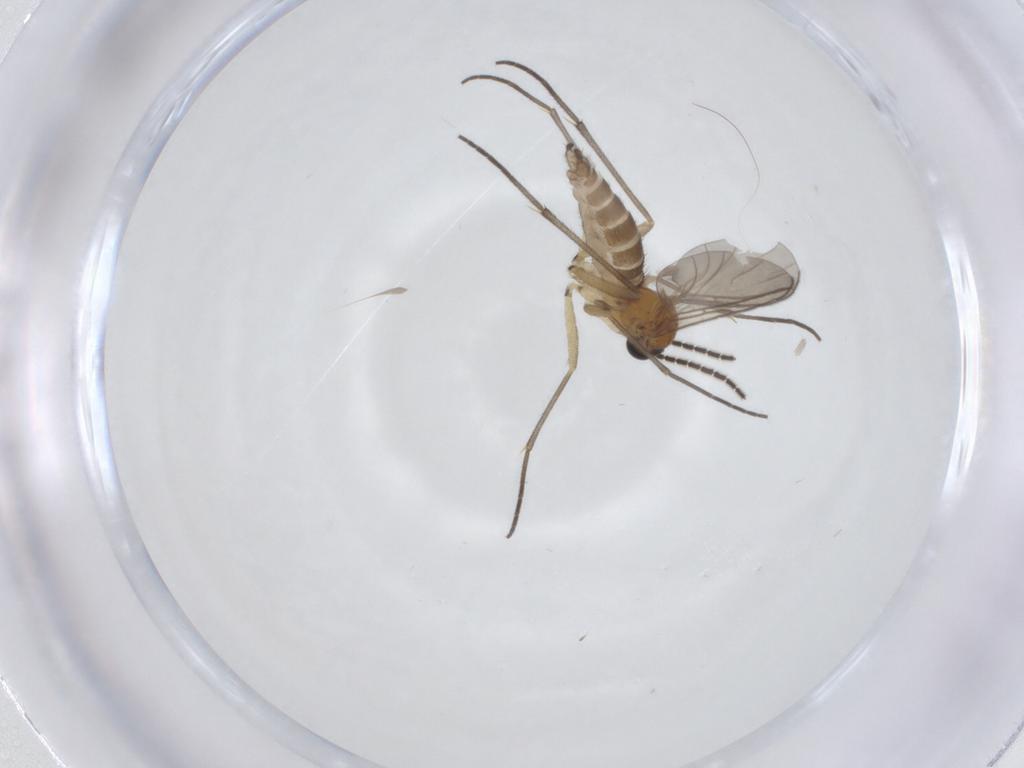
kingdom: Animalia
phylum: Arthropoda
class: Insecta
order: Diptera
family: Sciaridae
